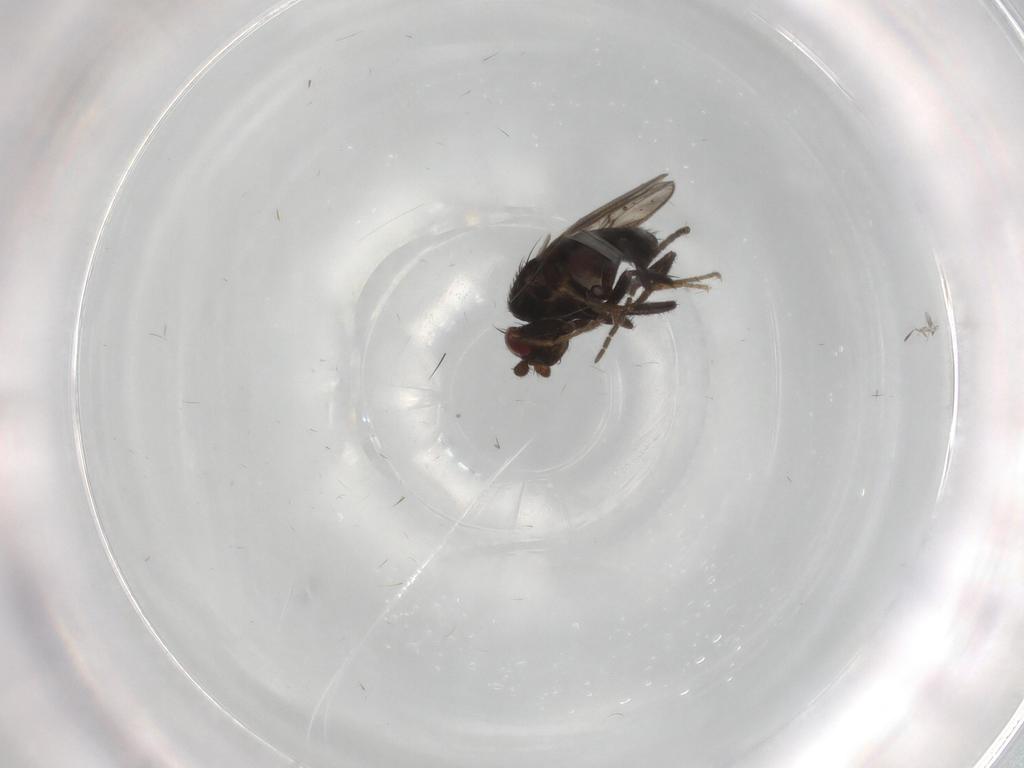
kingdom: Animalia
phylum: Arthropoda
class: Insecta
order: Diptera
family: Sciaridae
